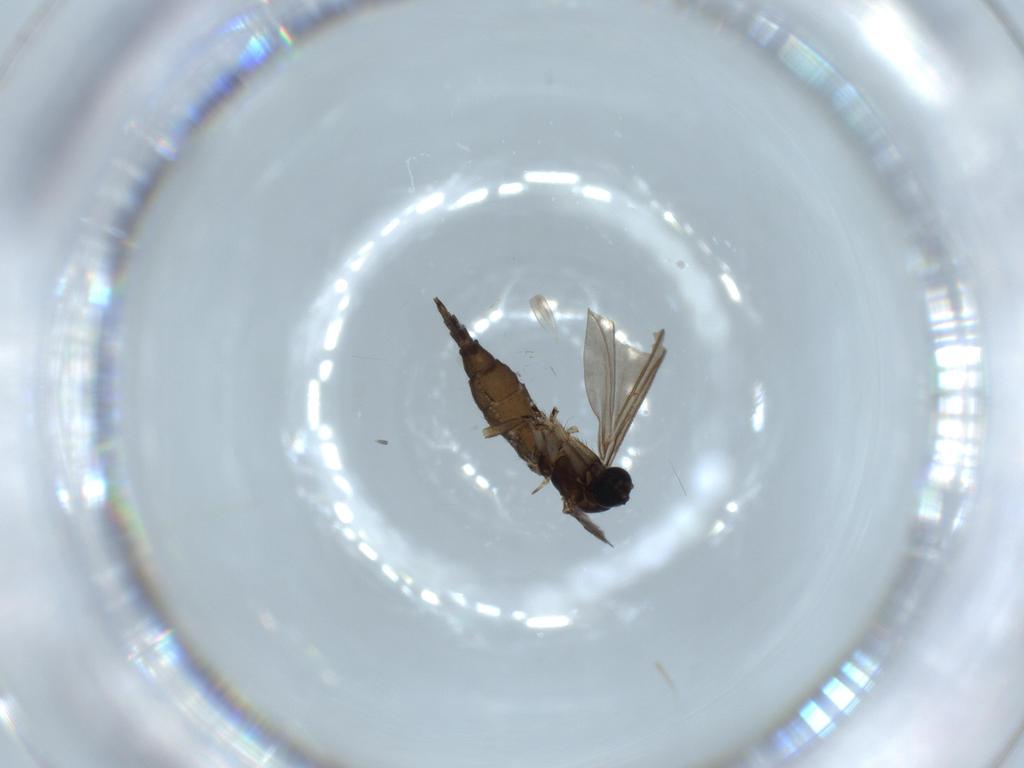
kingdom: Animalia
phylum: Arthropoda
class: Insecta
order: Diptera
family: Sciaridae
